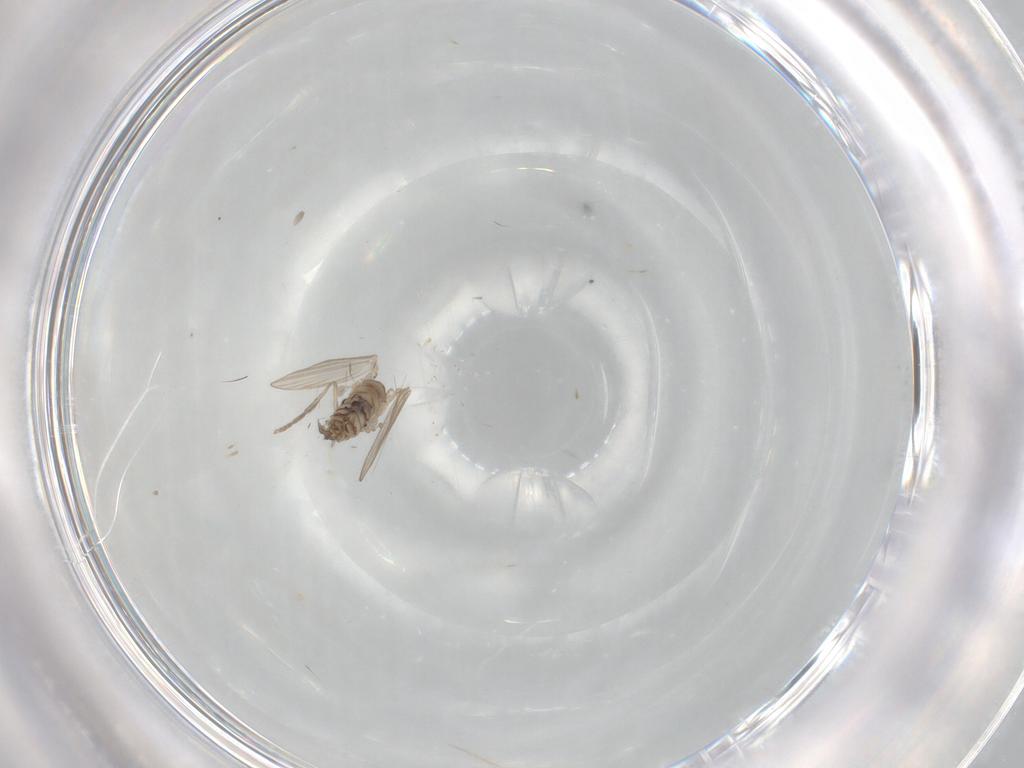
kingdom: Animalia
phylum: Arthropoda
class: Insecta
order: Diptera
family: Psychodidae
